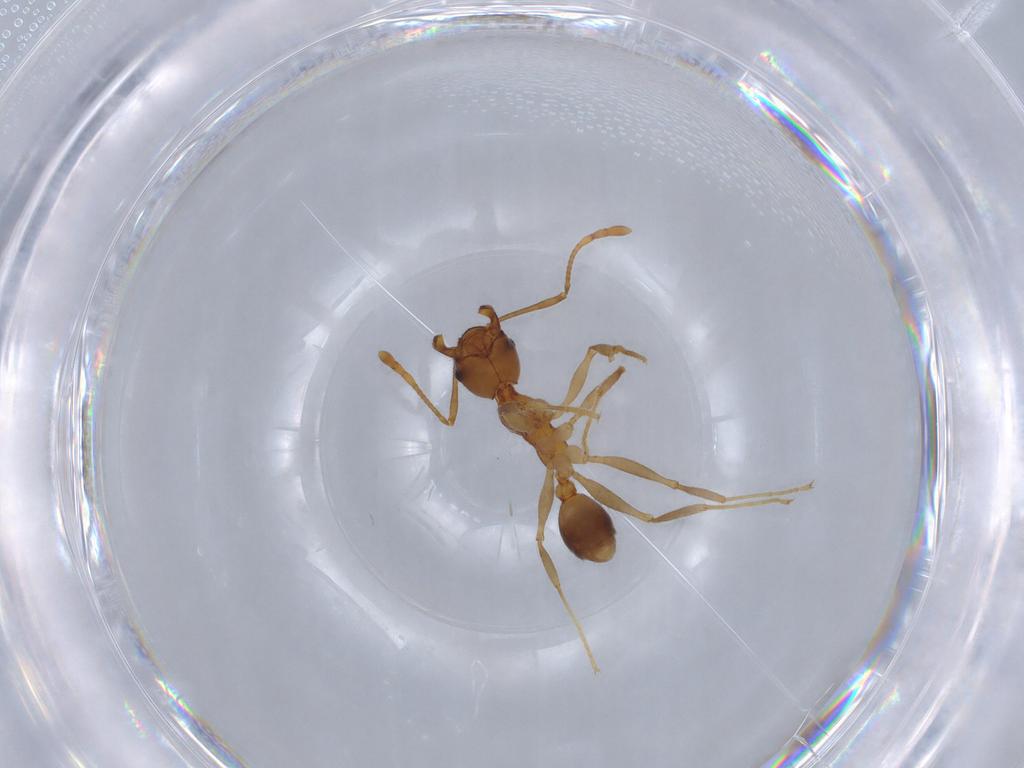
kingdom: Animalia
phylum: Arthropoda
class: Insecta
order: Hymenoptera
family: Formicidae
